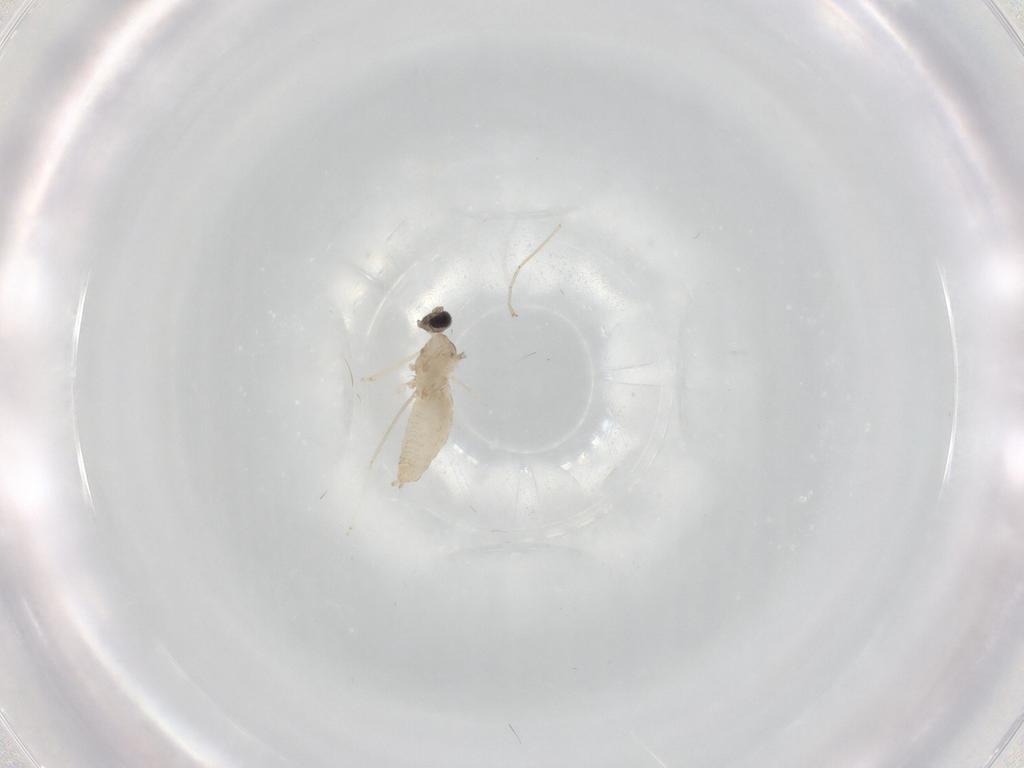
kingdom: Animalia
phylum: Arthropoda
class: Insecta
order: Diptera
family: Cecidomyiidae
